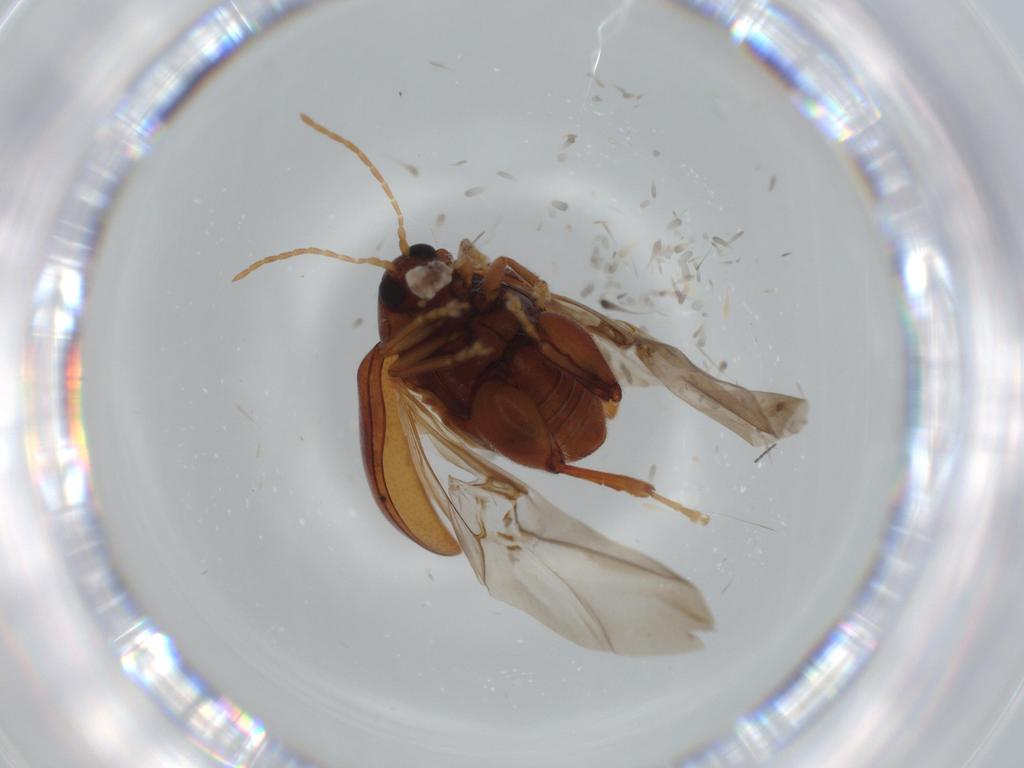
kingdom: Animalia
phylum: Arthropoda
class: Insecta
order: Coleoptera
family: Chrysomelidae
